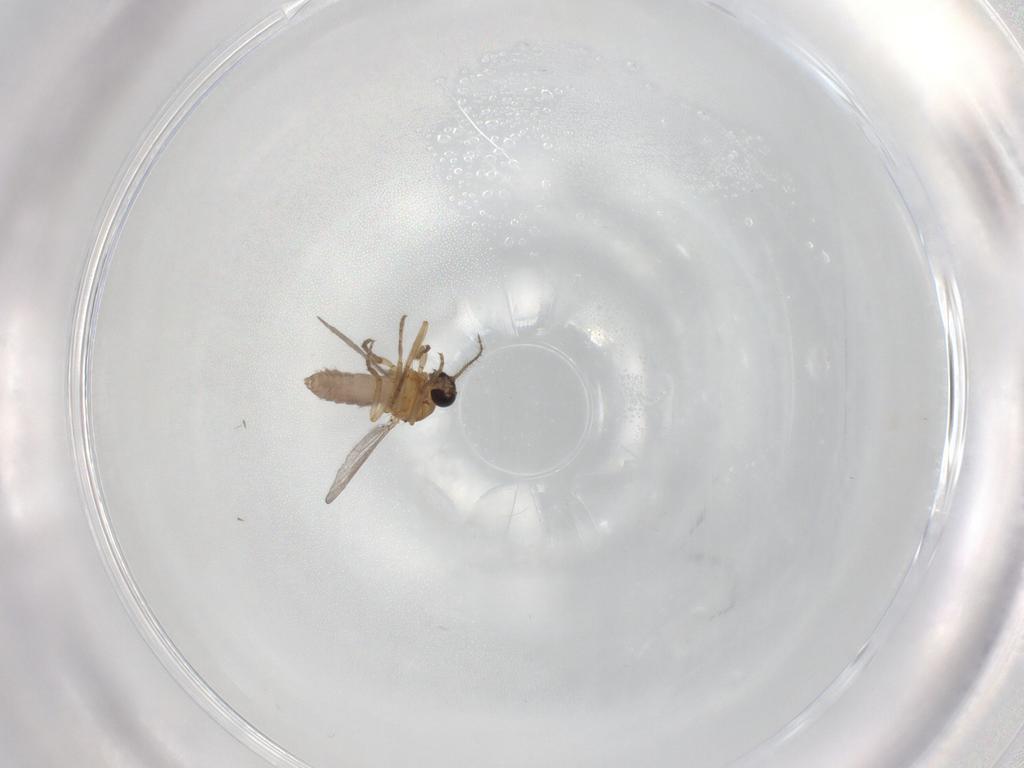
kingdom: Animalia
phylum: Arthropoda
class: Insecta
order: Diptera
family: Ceratopogonidae
